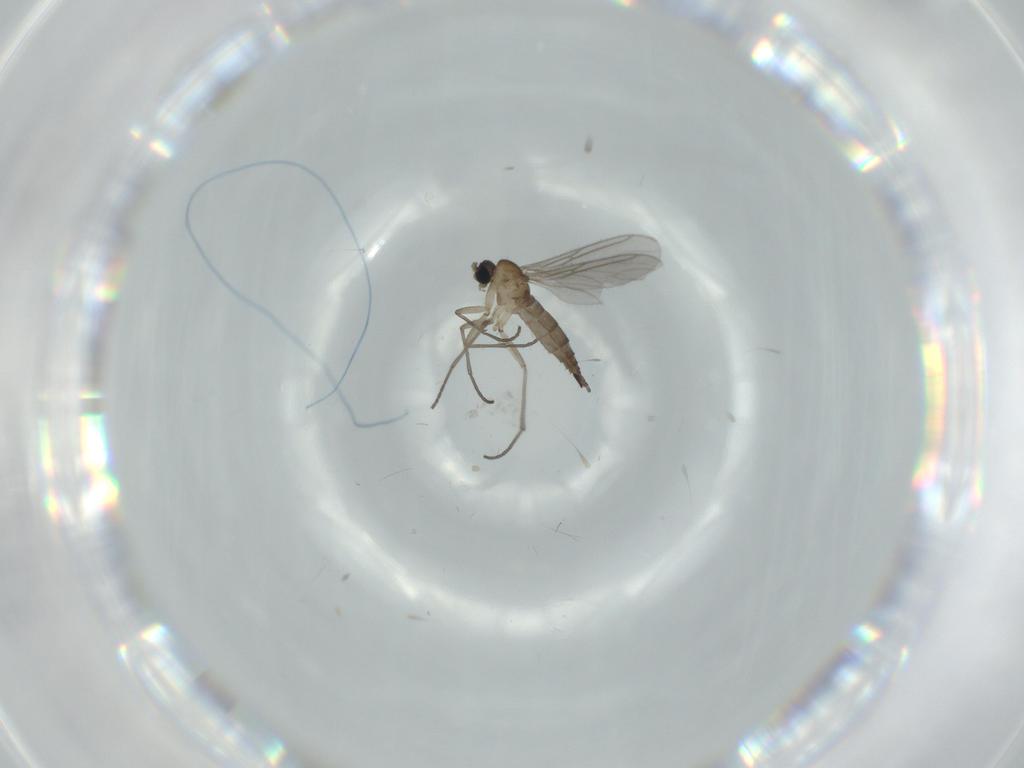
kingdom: Animalia
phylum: Arthropoda
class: Insecta
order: Diptera
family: Sciaridae
